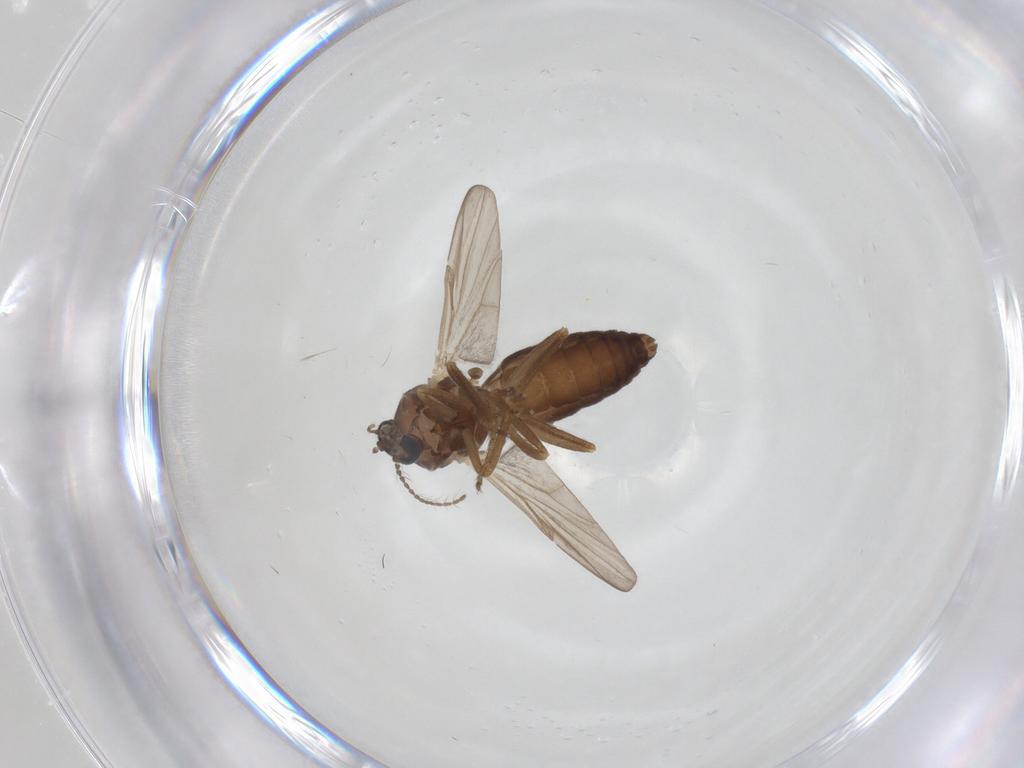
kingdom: Animalia
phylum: Arthropoda
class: Insecta
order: Diptera
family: Ceratopogonidae
